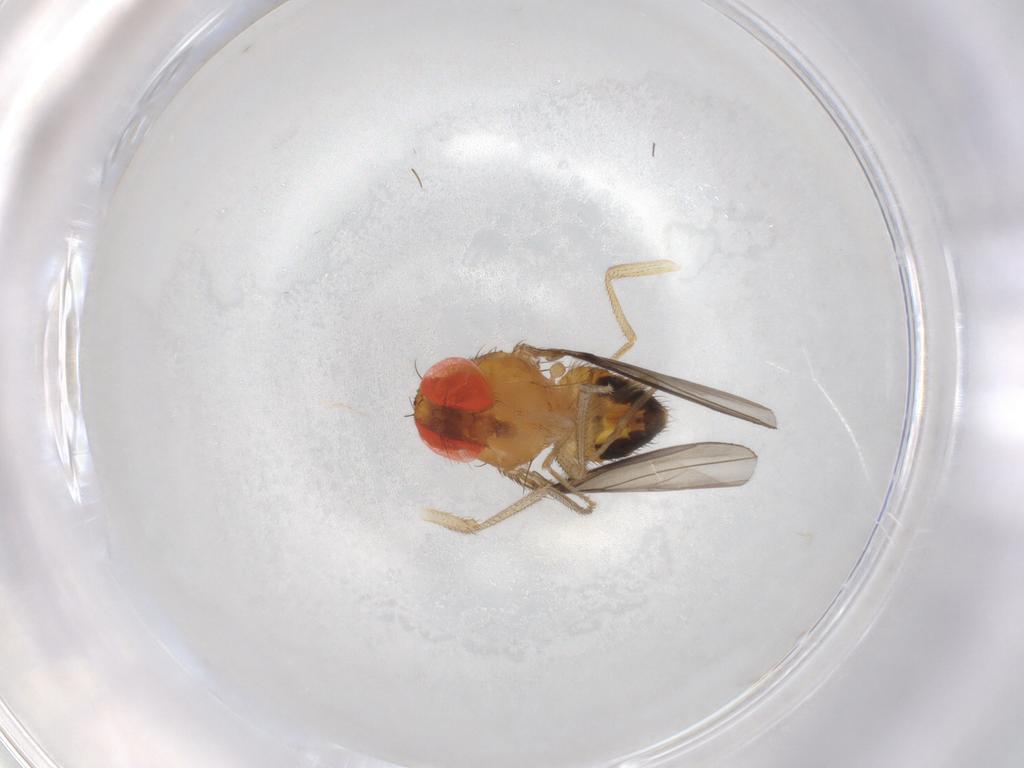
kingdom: Animalia
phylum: Arthropoda
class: Insecta
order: Diptera
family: Drosophilidae
